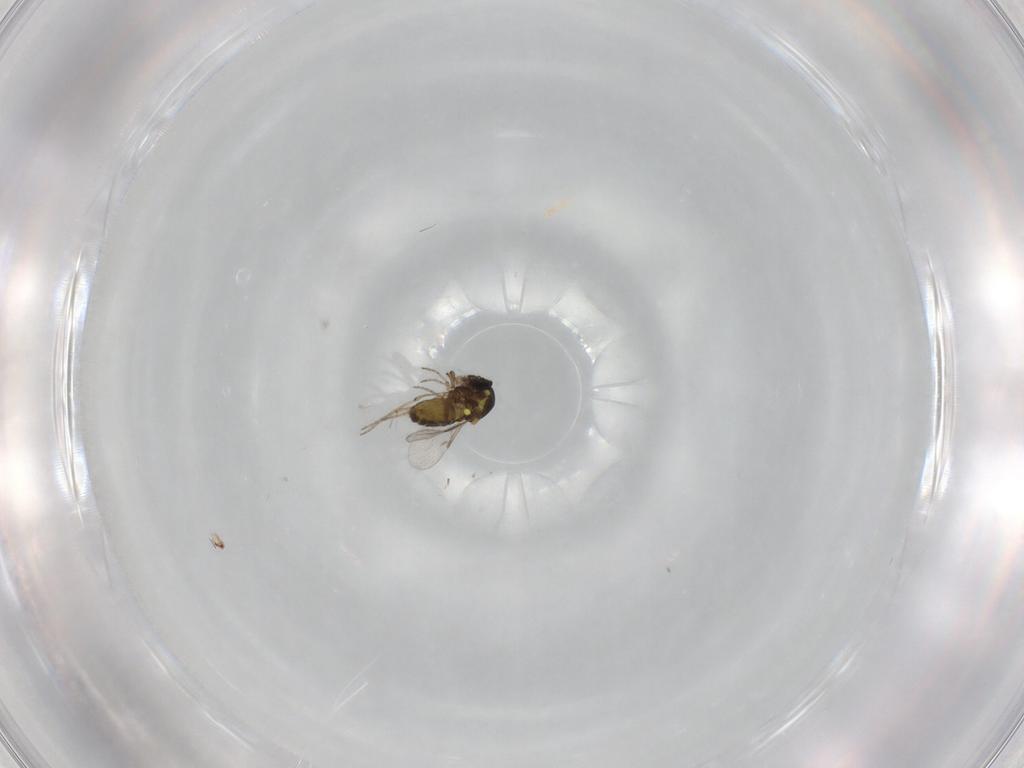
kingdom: Animalia
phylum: Arthropoda
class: Insecta
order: Diptera
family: Ceratopogonidae
